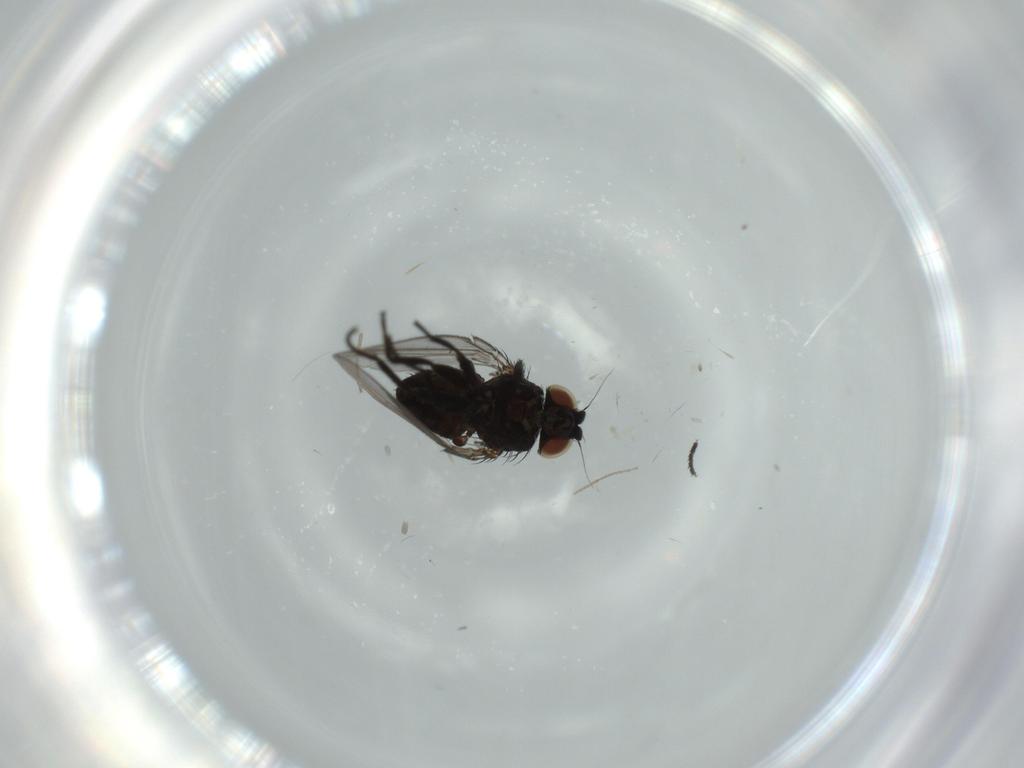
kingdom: Animalia
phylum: Arthropoda
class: Insecta
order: Diptera
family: Milichiidae
